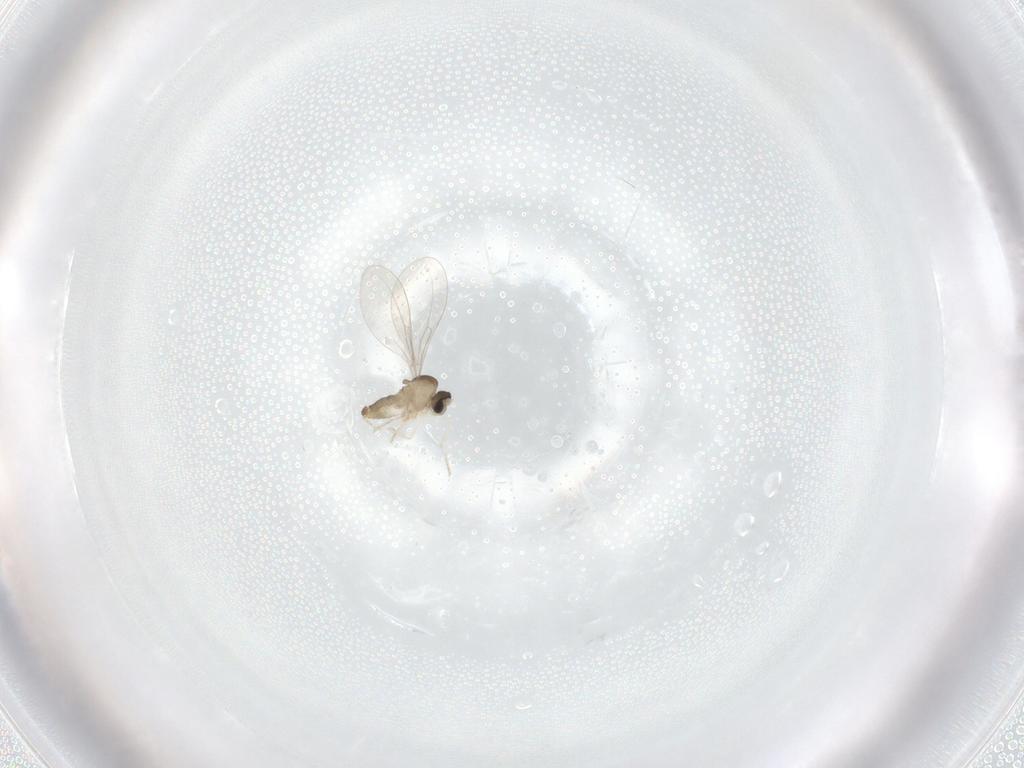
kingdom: Animalia
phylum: Arthropoda
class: Insecta
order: Diptera
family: Cecidomyiidae
